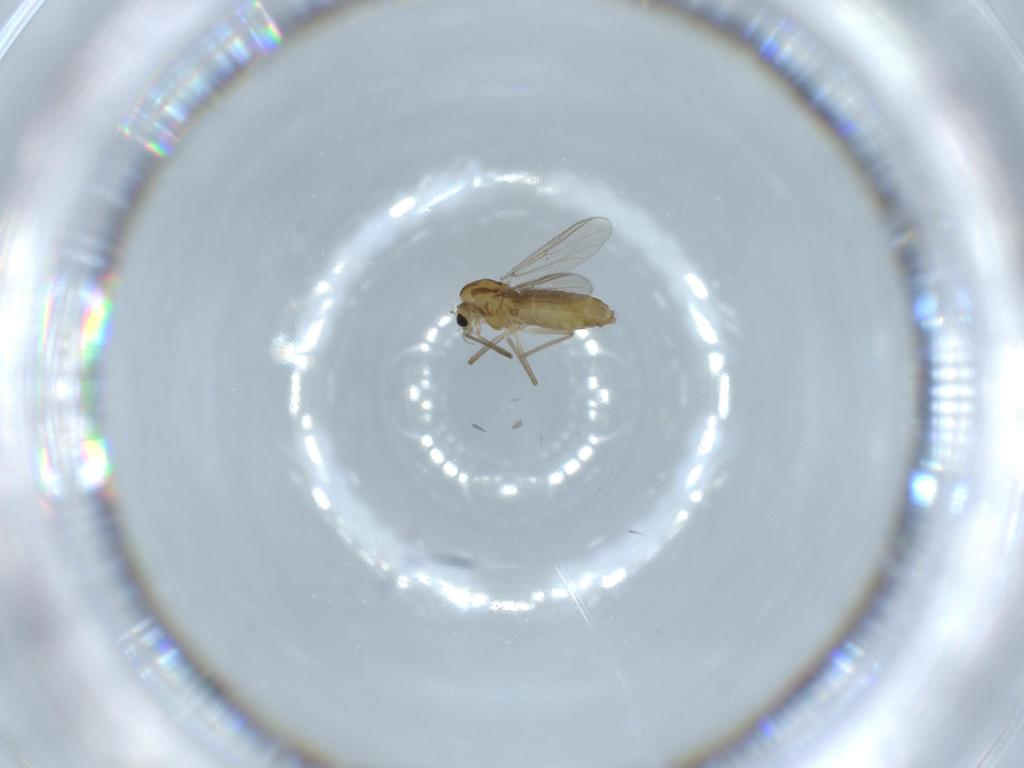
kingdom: Animalia
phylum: Arthropoda
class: Insecta
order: Diptera
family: Chironomidae
